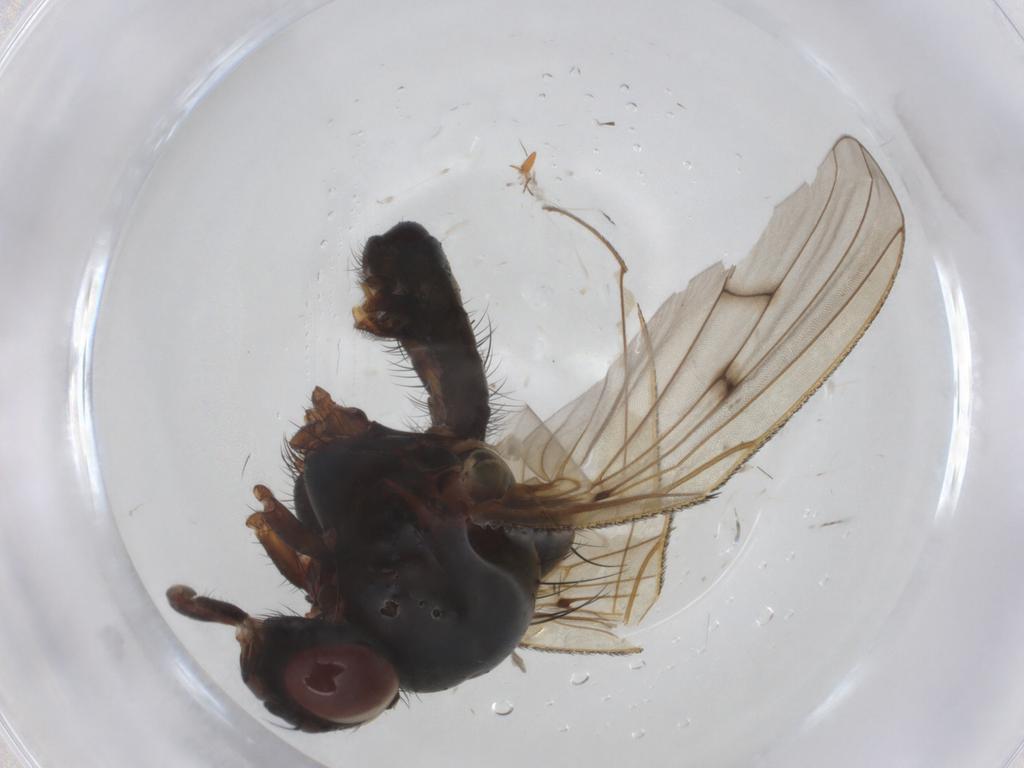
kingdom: Animalia
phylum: Arthropoda
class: Insecta
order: Diptera
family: Anthomyiidae
